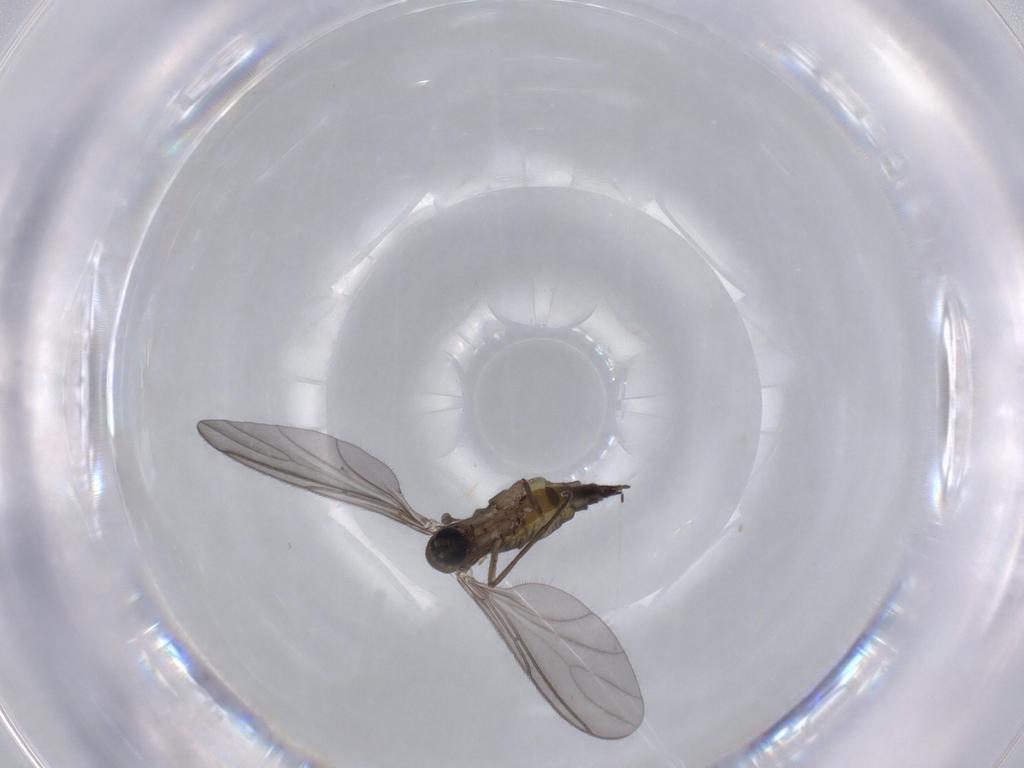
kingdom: Animalia
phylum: Arthropoda
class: Insecta
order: Diptera
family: Sciaridae
